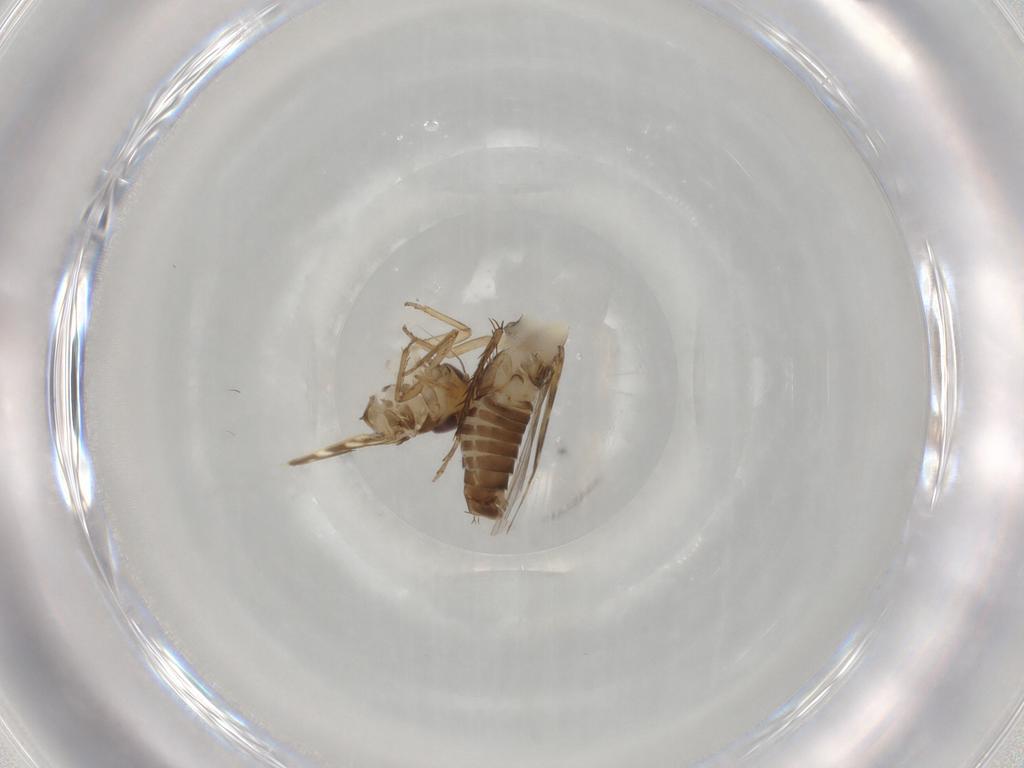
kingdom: Animalia
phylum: Arthropoda
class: Insecta
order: Hemiptera
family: Cicadellidae
